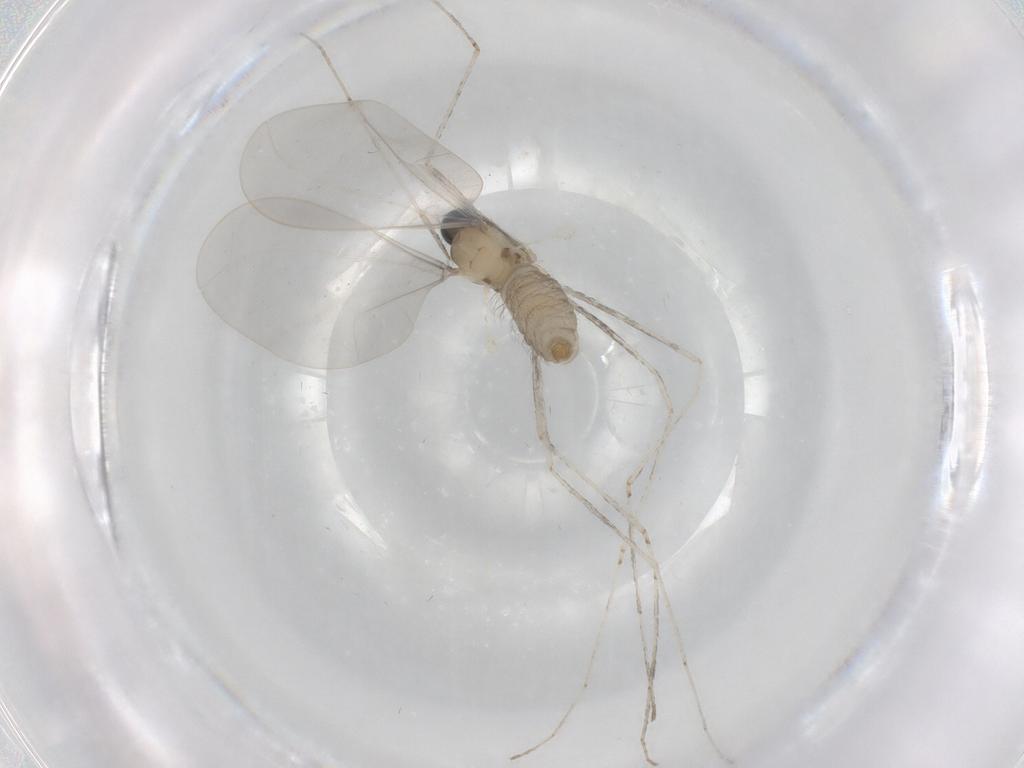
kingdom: Animalia
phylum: Arthropoda
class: Insecta
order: Diptera
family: Cecidomyiidae
